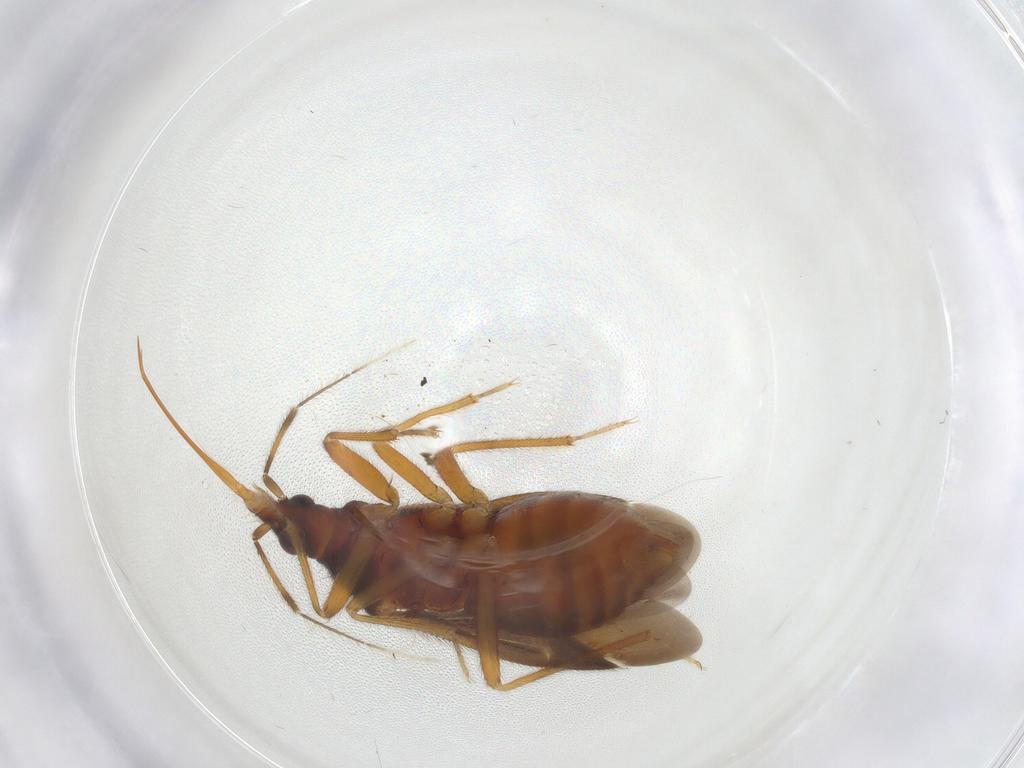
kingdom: Animalia
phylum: Arthropoda
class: Insecta
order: Hemiptera
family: Anthocoridae
